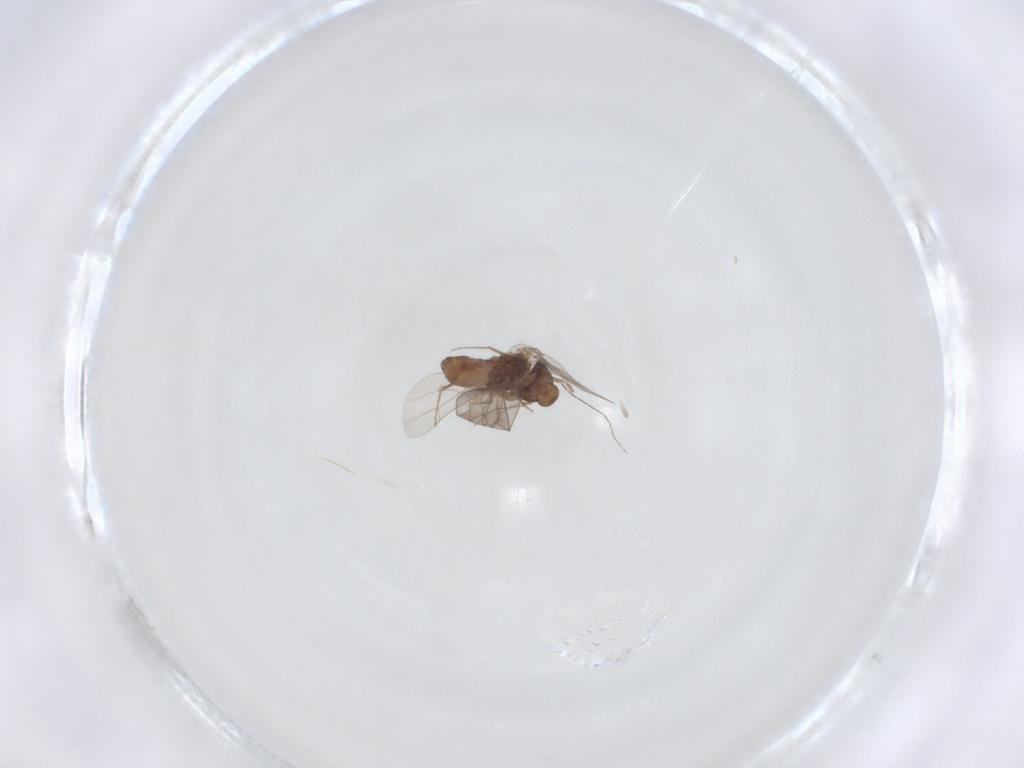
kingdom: Animalia
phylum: Arthropoda
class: Insecta
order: Psocodea
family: Lepidopsocidae
